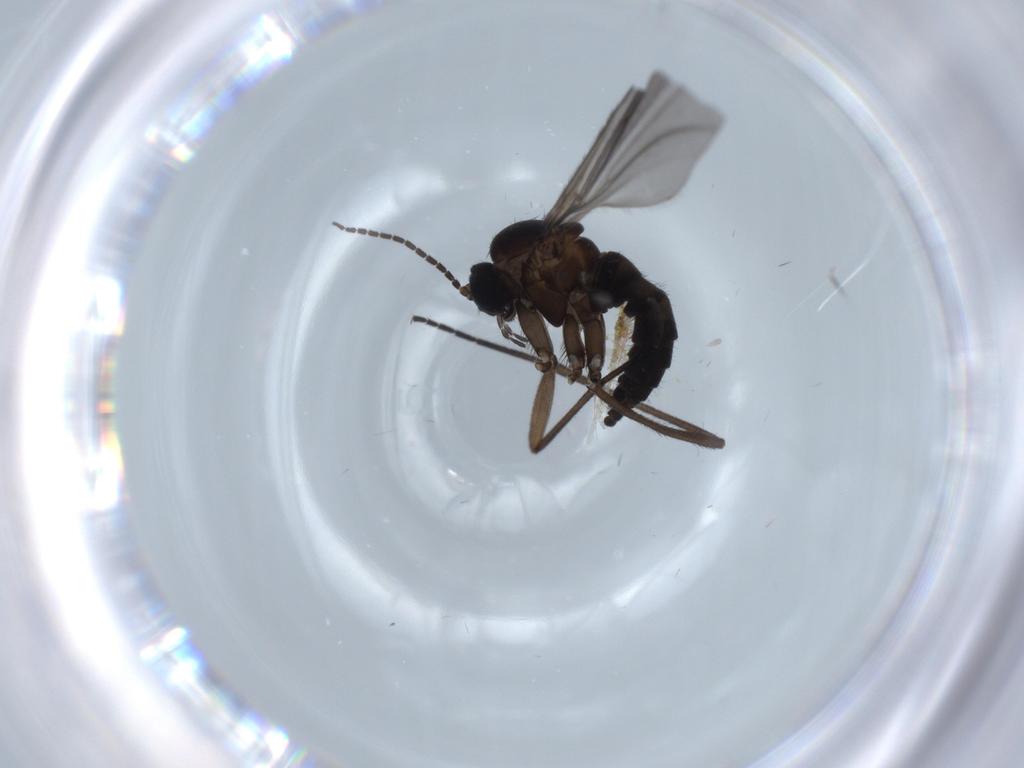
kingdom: Animalia
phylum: Arthropoda
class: Insecta
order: Diptera
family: Sciaridae
